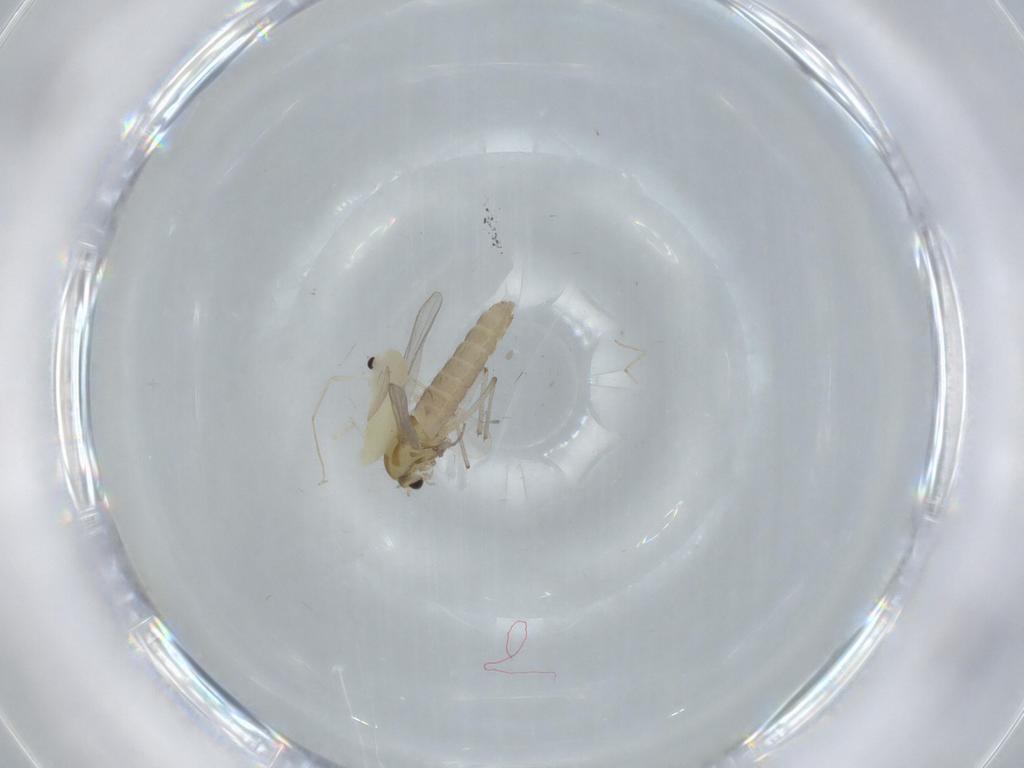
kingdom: Animalia
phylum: Arthropoda
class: Insecta
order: Diptera
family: Chironomidae
